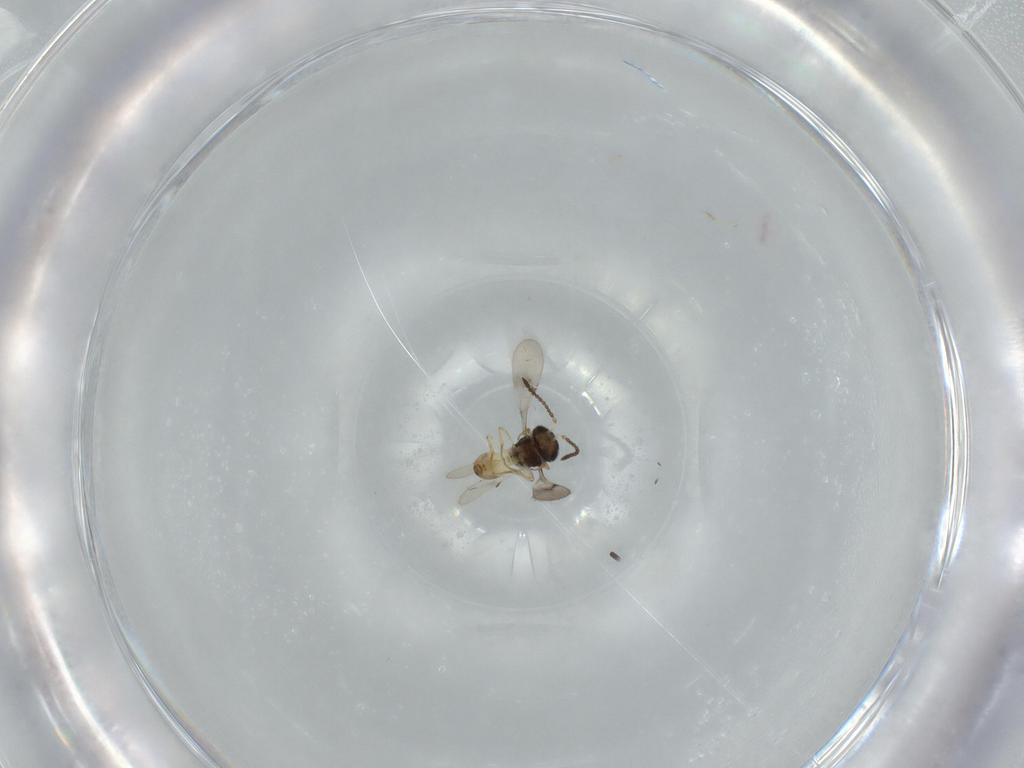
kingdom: Animalia
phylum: Arthropoda
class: Insecta
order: Hymenoptera
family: Scelionidae
